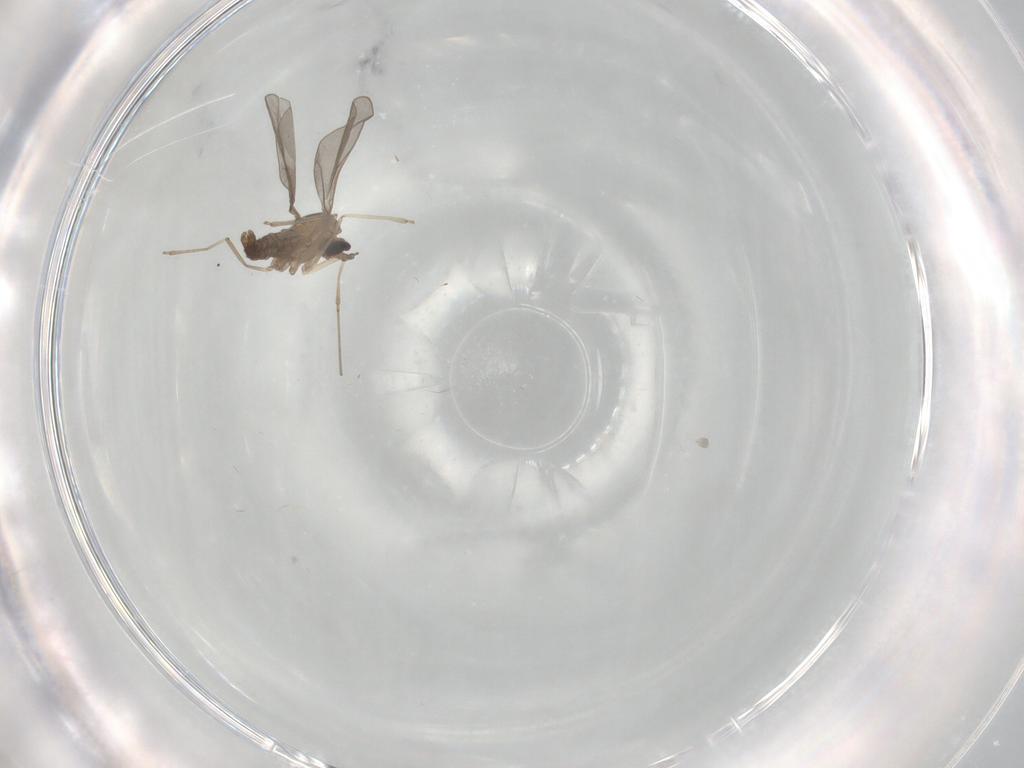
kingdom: Animalia
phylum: Arthropoda
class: Insecta
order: Diptera
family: Cecidomyiidae
